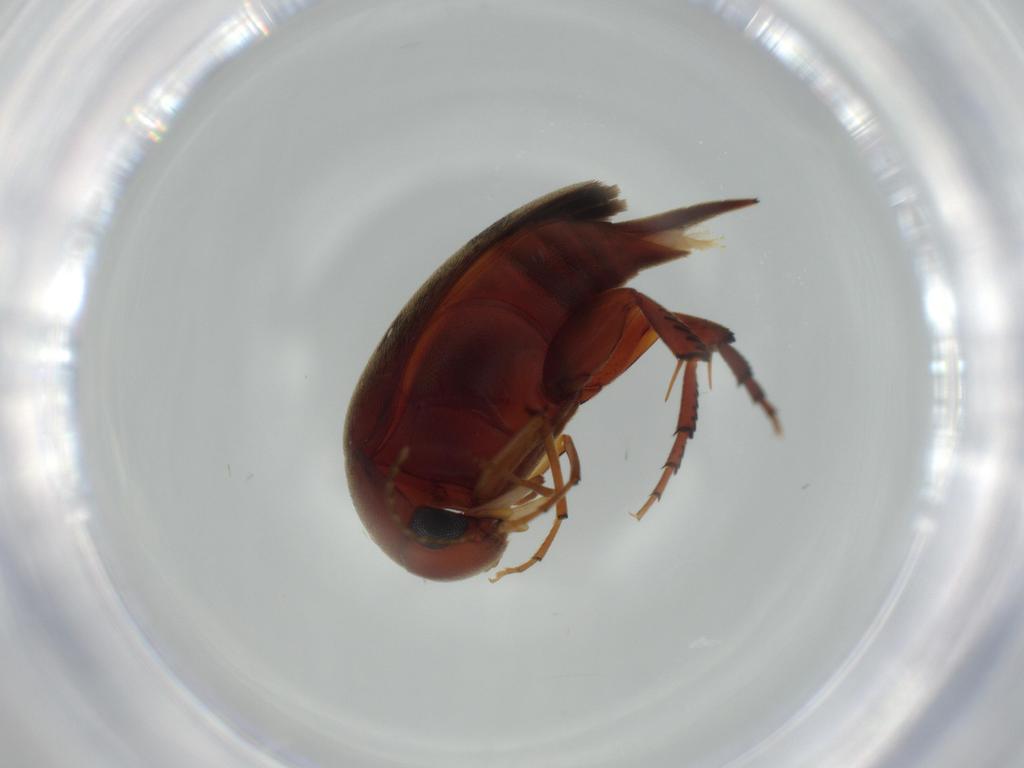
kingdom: Animalia
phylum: Arthropoda
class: Insecta
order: Coleoptera
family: Mordellidae
